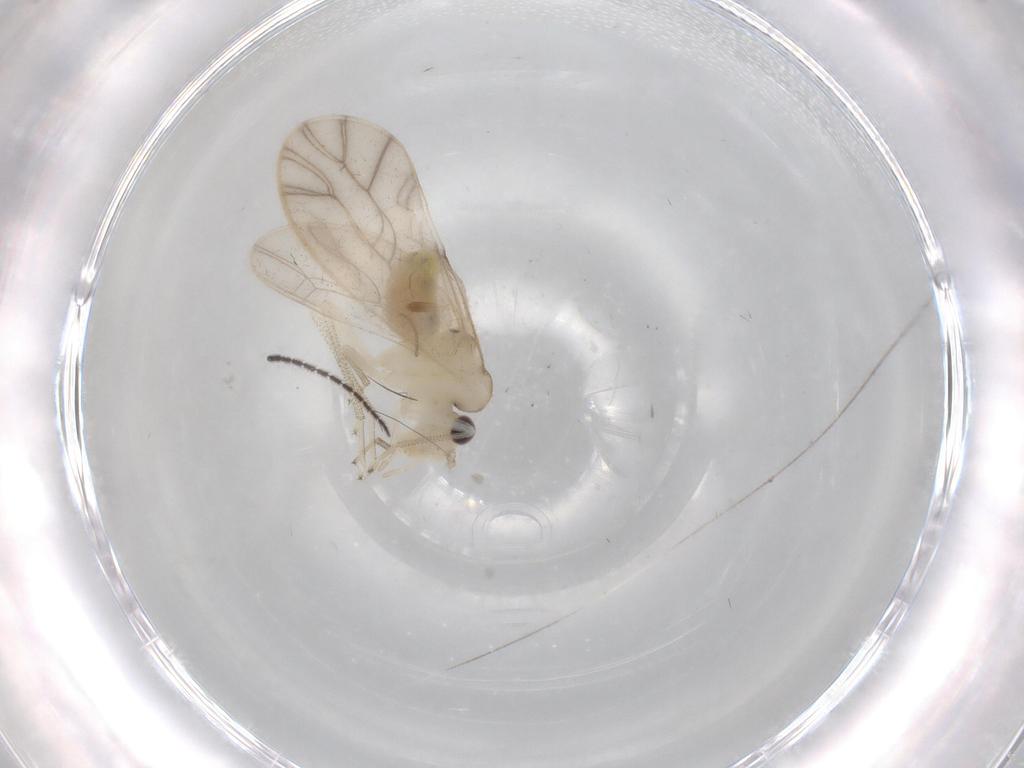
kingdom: Animalia
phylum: Arthropoda
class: Insecta
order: Psocodea
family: Caeciliusidae
